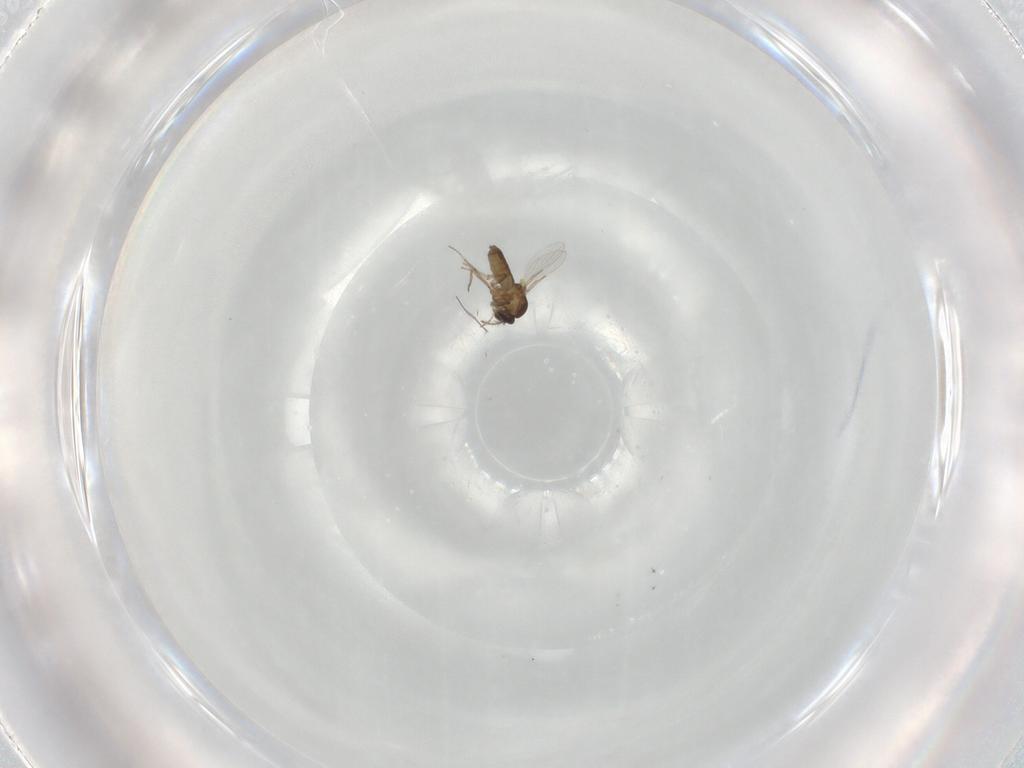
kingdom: Animalia
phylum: Arthropoda
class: Insecta
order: Diptera
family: Ceratopogonidae
